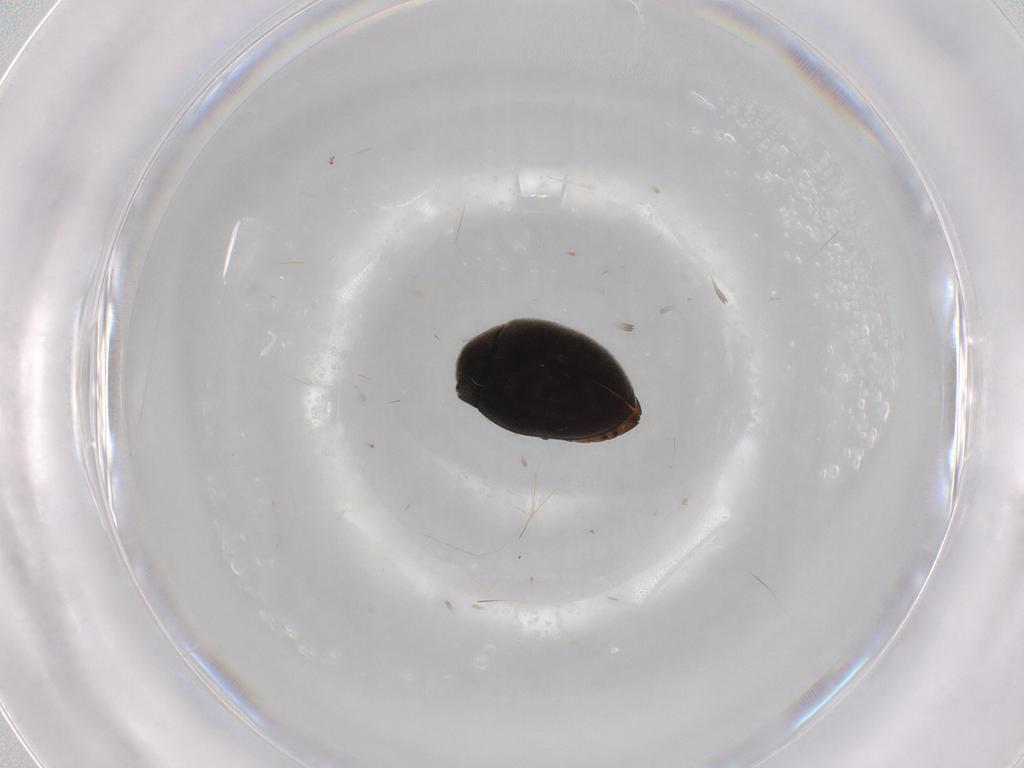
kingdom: Animalia
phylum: Arthropoda
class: Insecta
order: Coleoptera
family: Limnichidae
